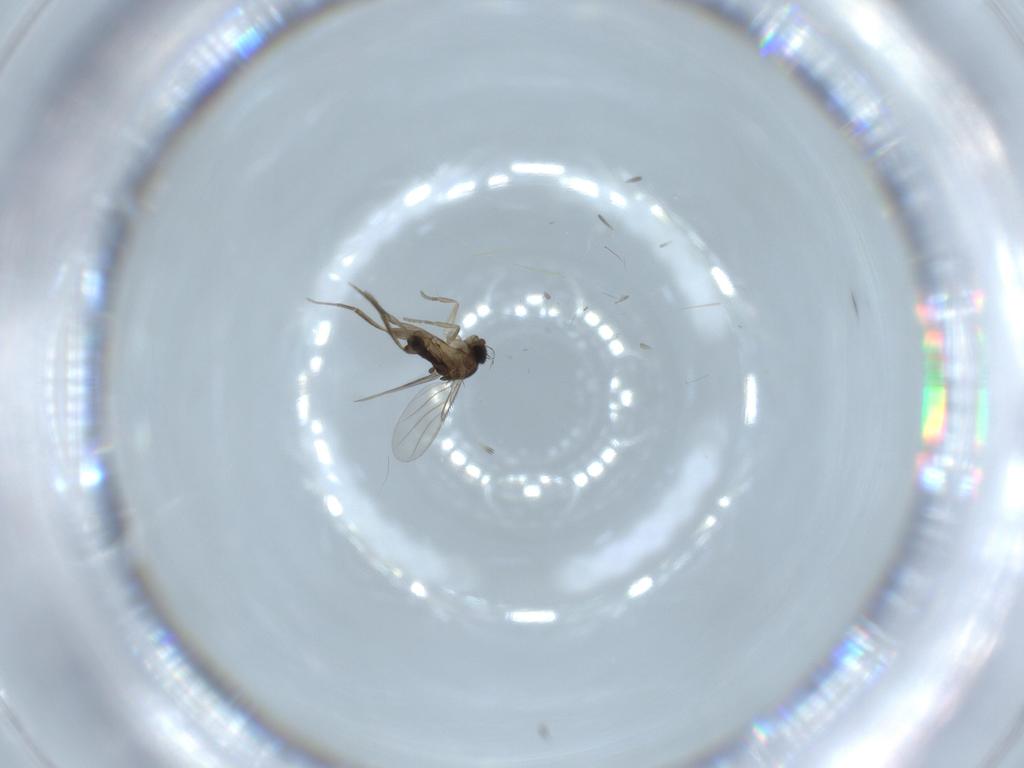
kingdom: Animalia
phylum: Arthropoda
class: Insecta
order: Diptera
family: Phoridae
